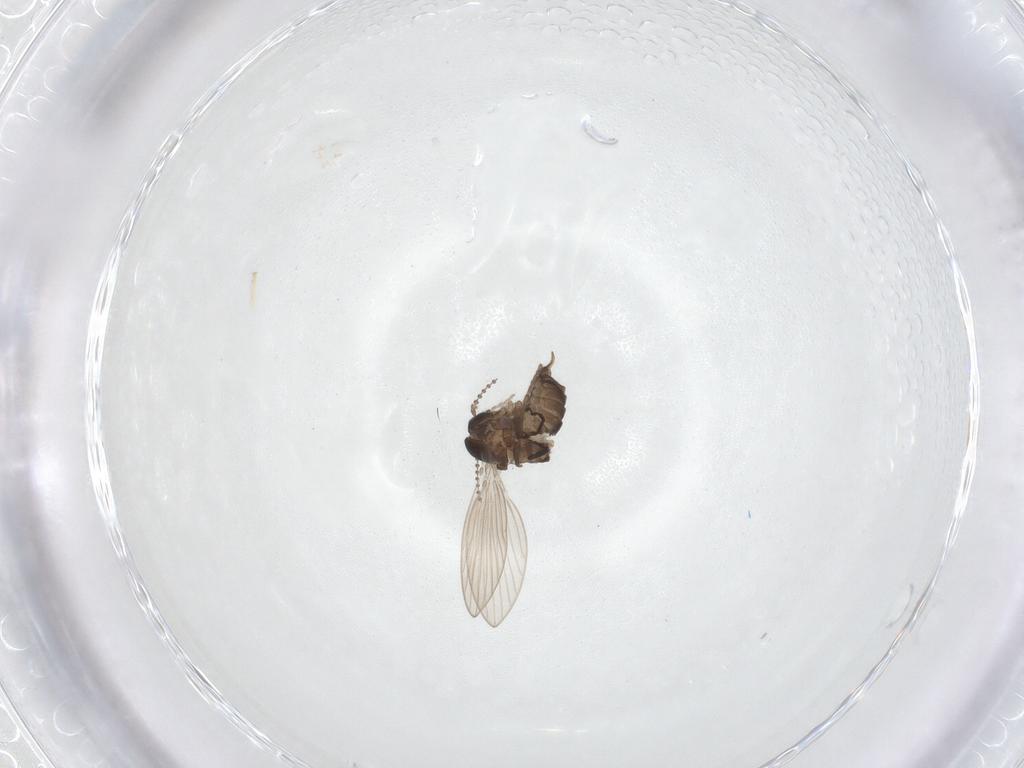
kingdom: Animalia
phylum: Arthropoda
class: Insecta
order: Diptera
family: Psychodidae
